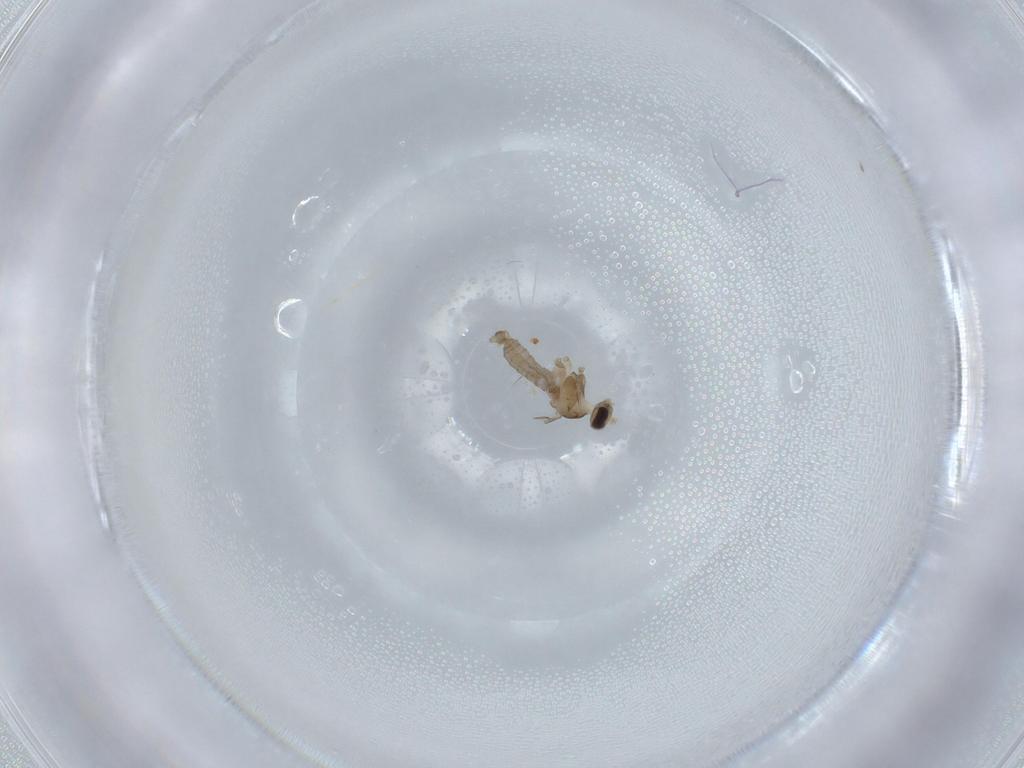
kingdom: Animalia
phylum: Arthropoda
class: Insecta
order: Diptera
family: Cecidomyiidae
